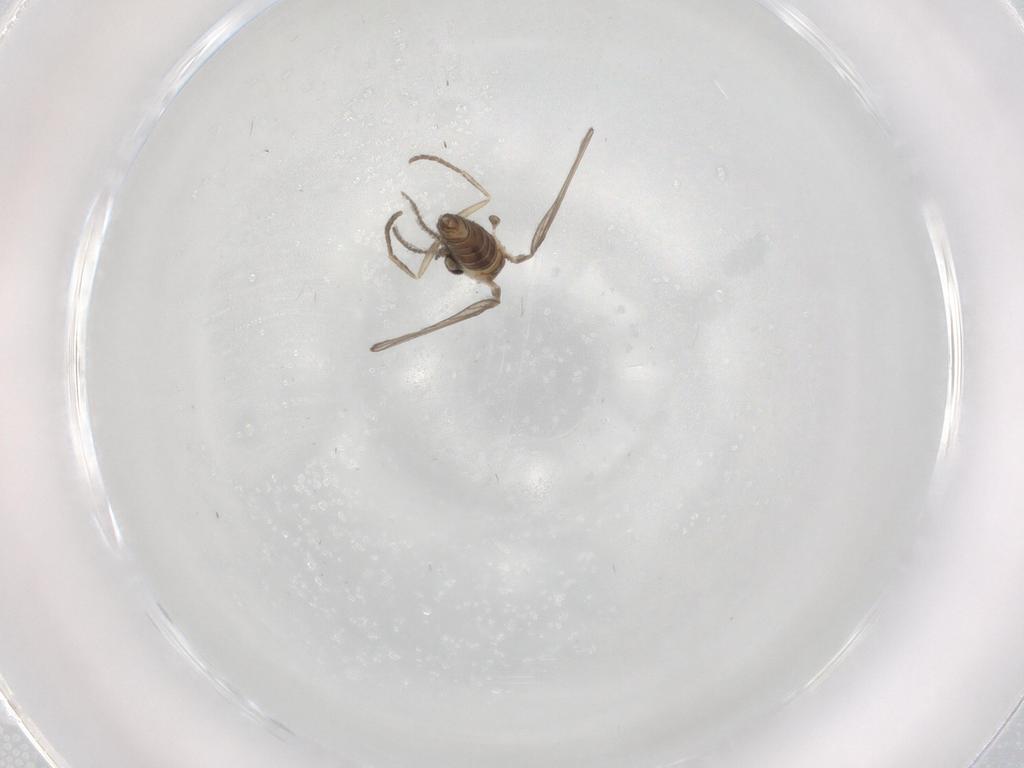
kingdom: Animalia
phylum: Arthropoda
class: Insecta
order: Diptera
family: Psychodidae
